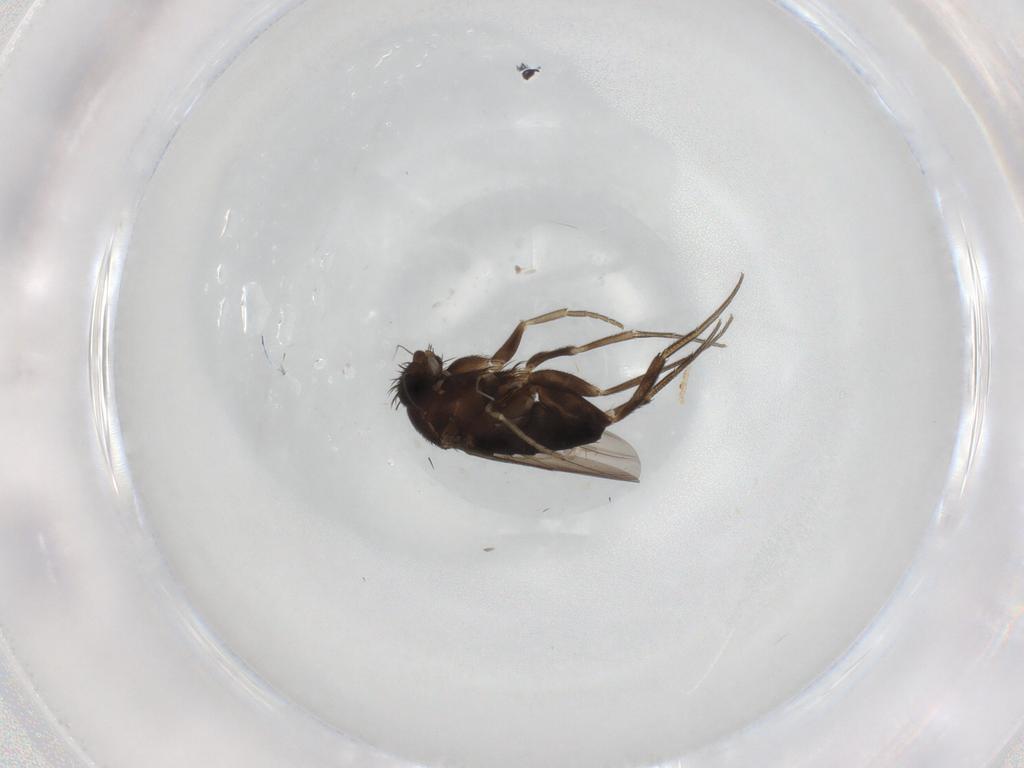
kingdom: Animalia
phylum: Arthropoda
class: Insecta
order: Diptera
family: Cecidomyiidae
